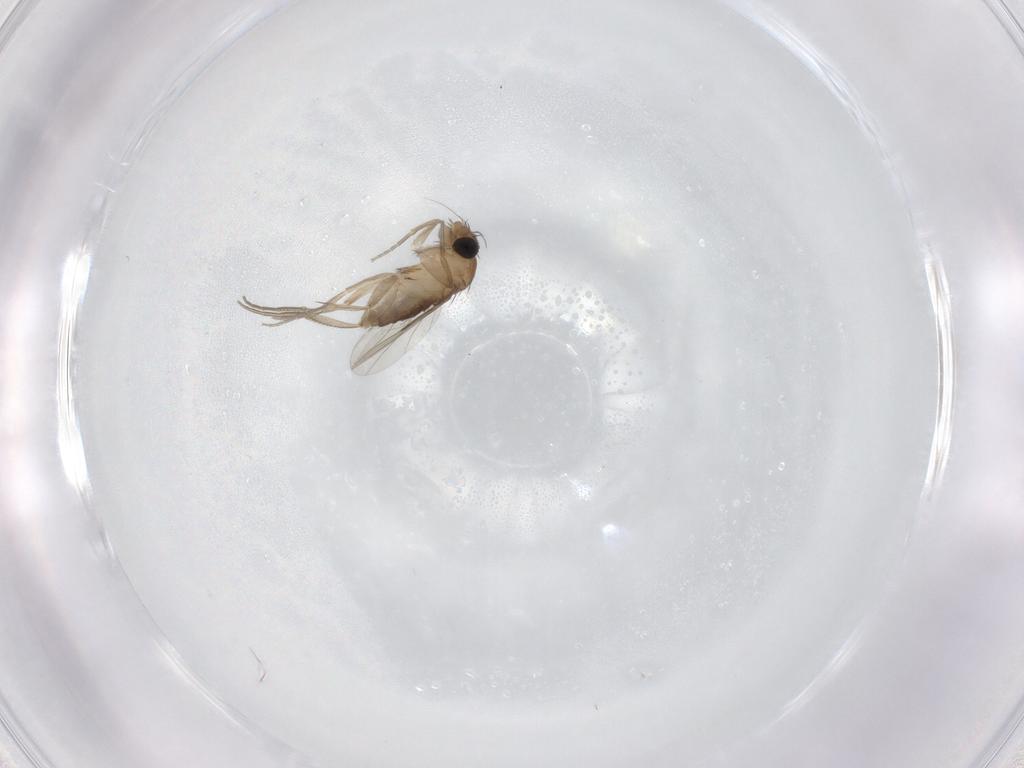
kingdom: Animalia
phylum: Arthropoda
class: Insecta
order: Diptera
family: Phoridae
